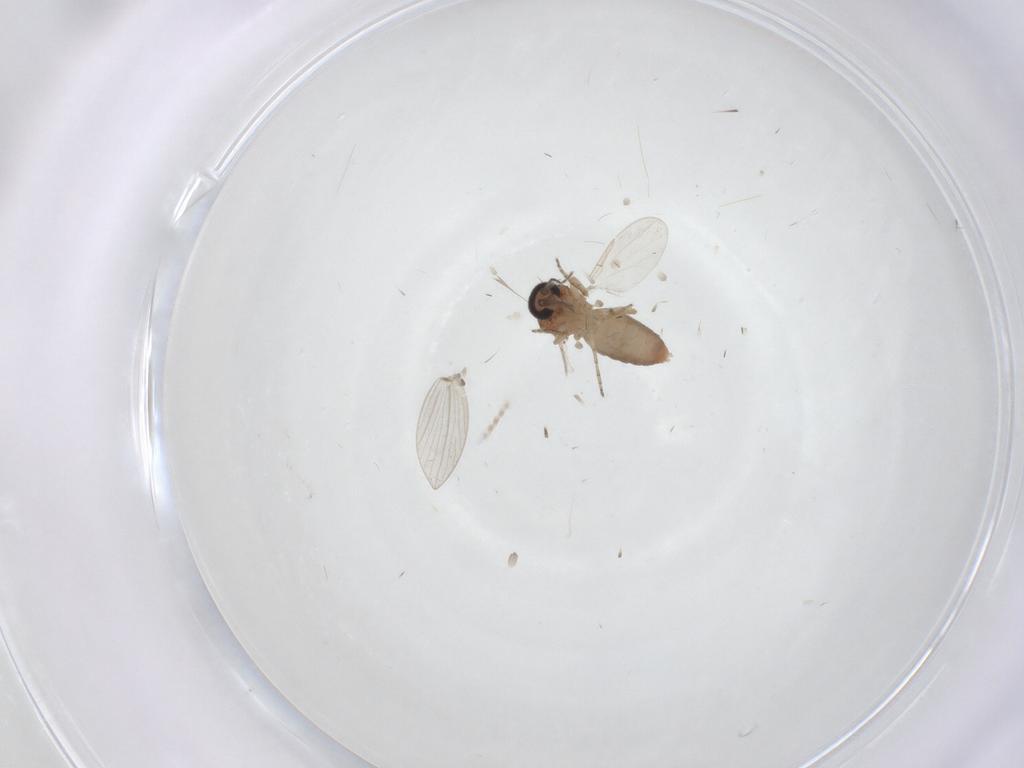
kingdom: Animalia
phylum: Arthropoda
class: Insecta
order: Diptera
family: Ceratopogonidae
